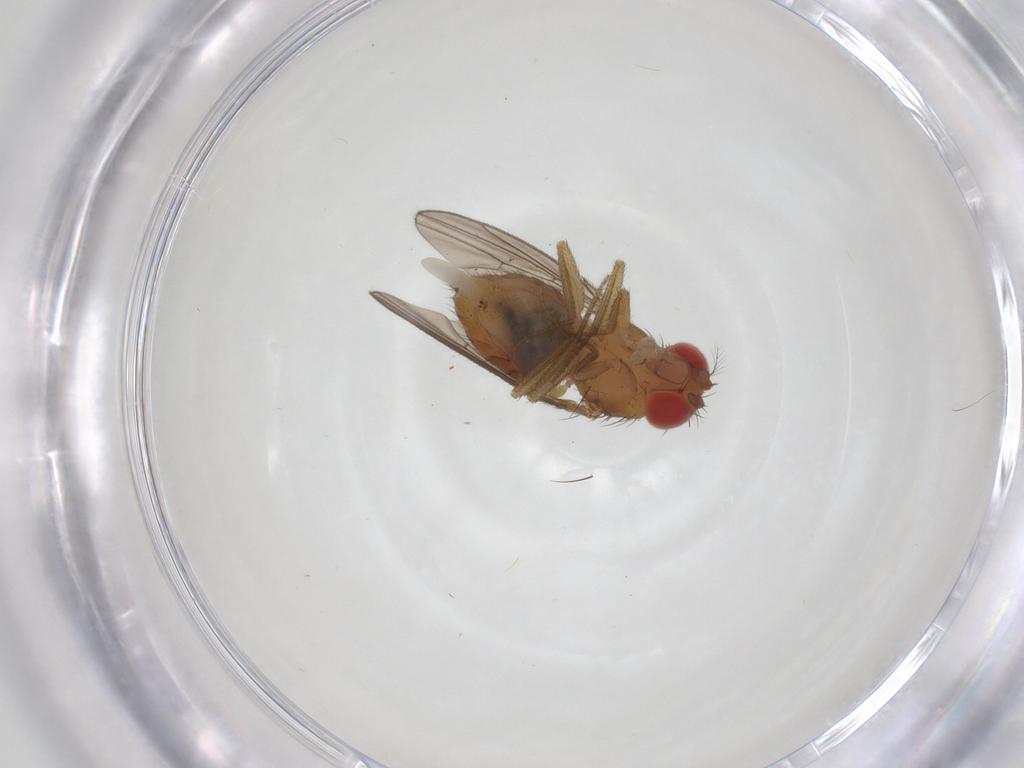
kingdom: Animalia
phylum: Arthropoda
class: Insecta
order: Diptera
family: Drosophilidae
